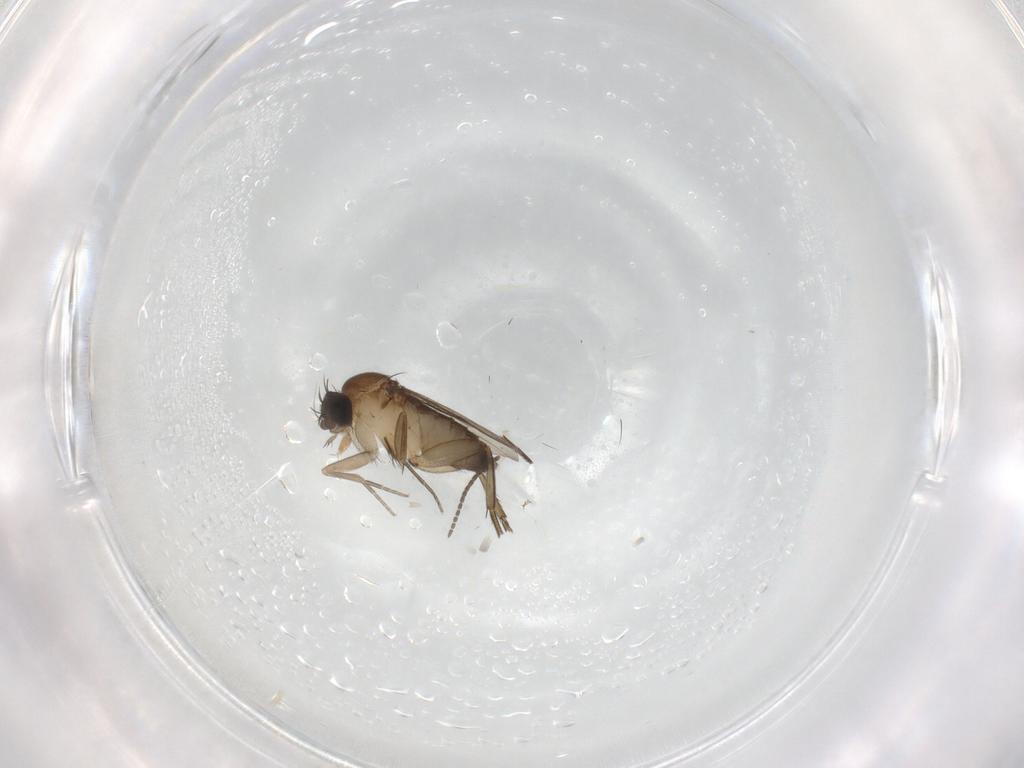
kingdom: Animalia
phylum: Arthropoda
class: Insecta
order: Diptera
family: Phoridae
